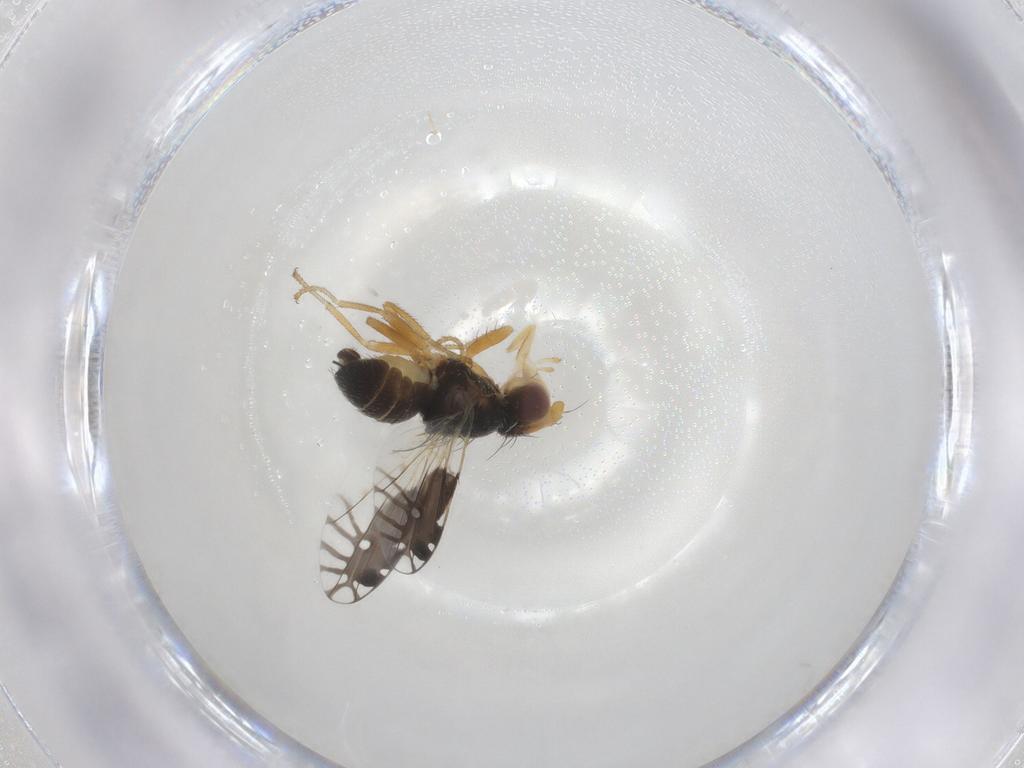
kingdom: Animalia
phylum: Arthropoda
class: Insecta
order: Diptera
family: Tephritidae
